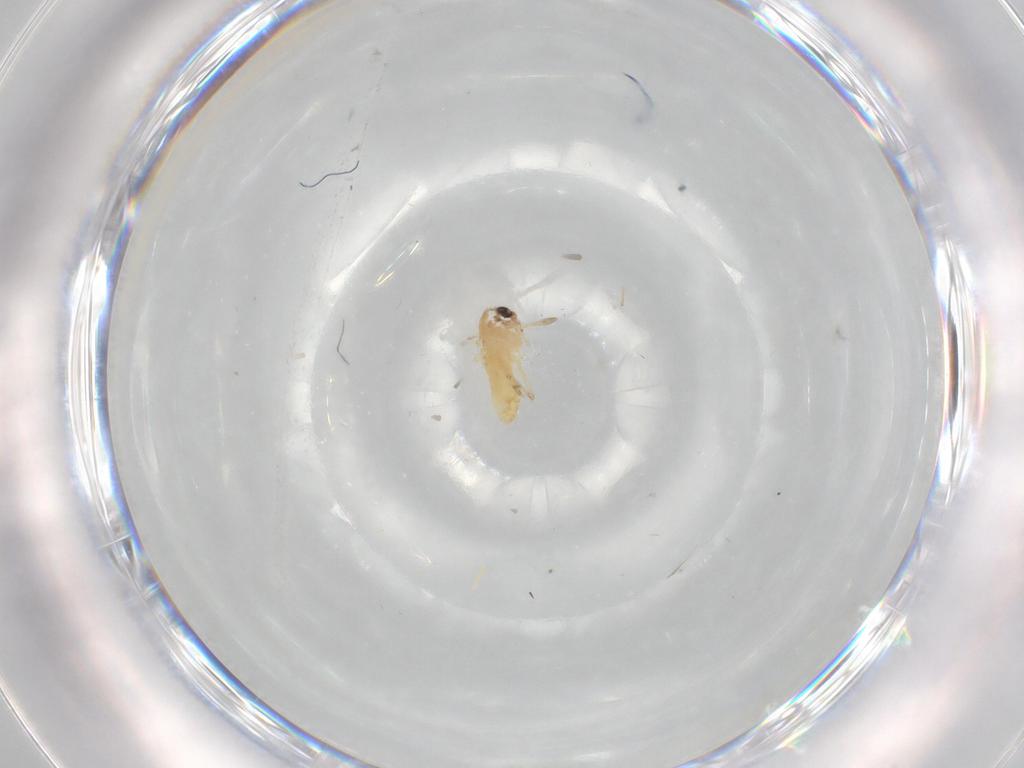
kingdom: Animalia
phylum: Arthropoda
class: Insecta
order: Diptera
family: Chironomidae
